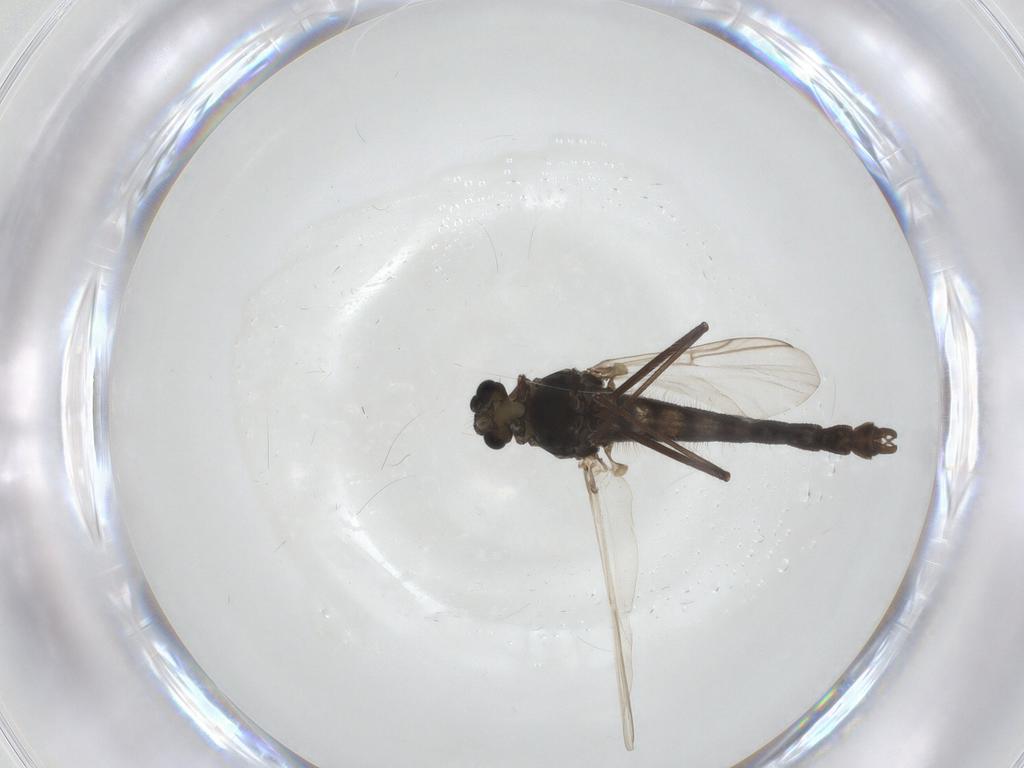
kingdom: Animalia
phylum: Arthropoda
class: Insecta
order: Diptera
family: Chironomidae
